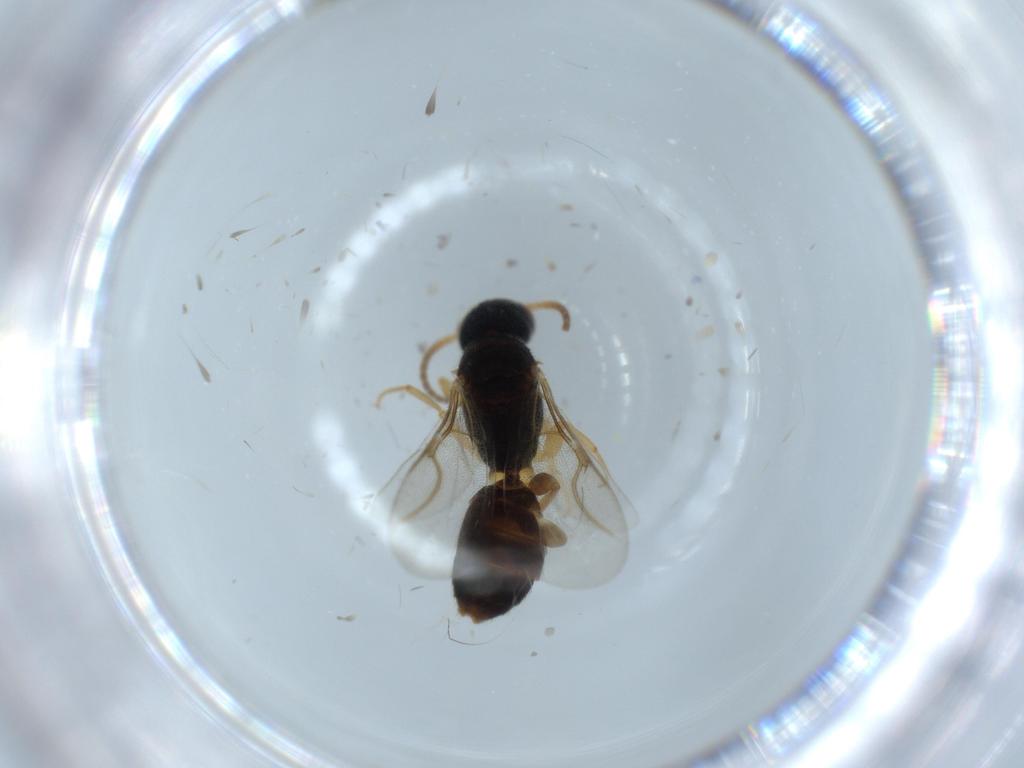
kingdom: Animalia
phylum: Arthropoda
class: Insecta
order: Hymenoptera
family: Bethylidae
